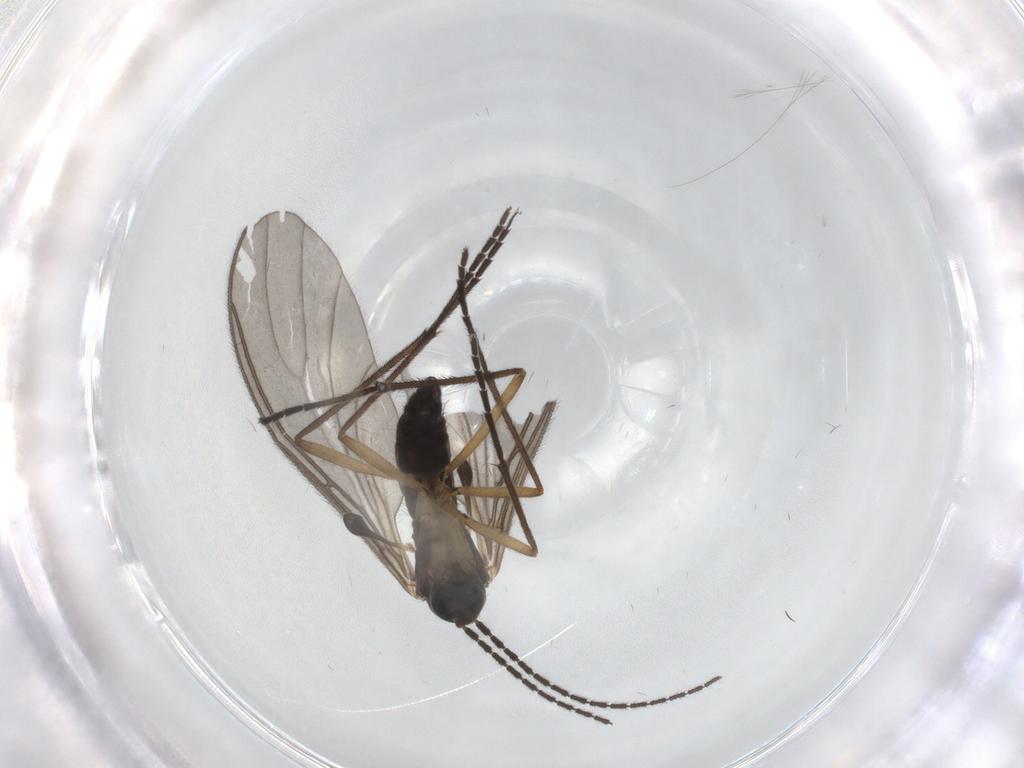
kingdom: Animalia
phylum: Arthropoda
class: Insecta
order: Diptera
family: Sciaridae
